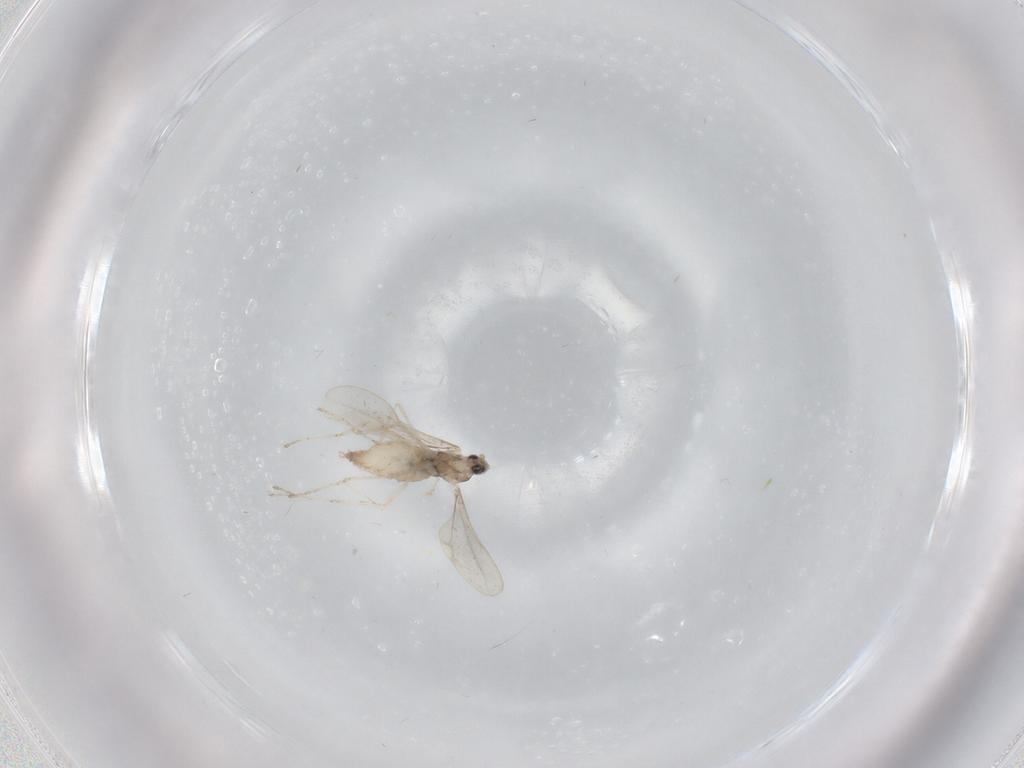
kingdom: Animalia
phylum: Arthropoda
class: Insecta
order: Diptera
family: Cecidomyiidae
